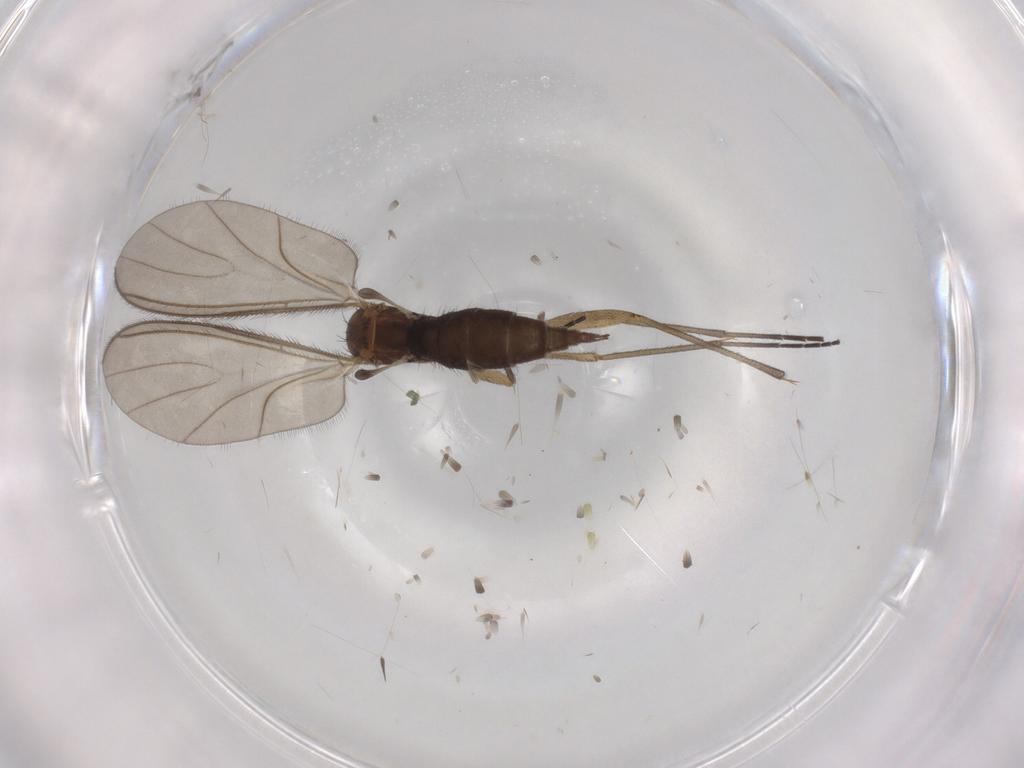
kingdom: Animalia
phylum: Arthropoda
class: Insecta
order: Diptera
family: Sciaridae
